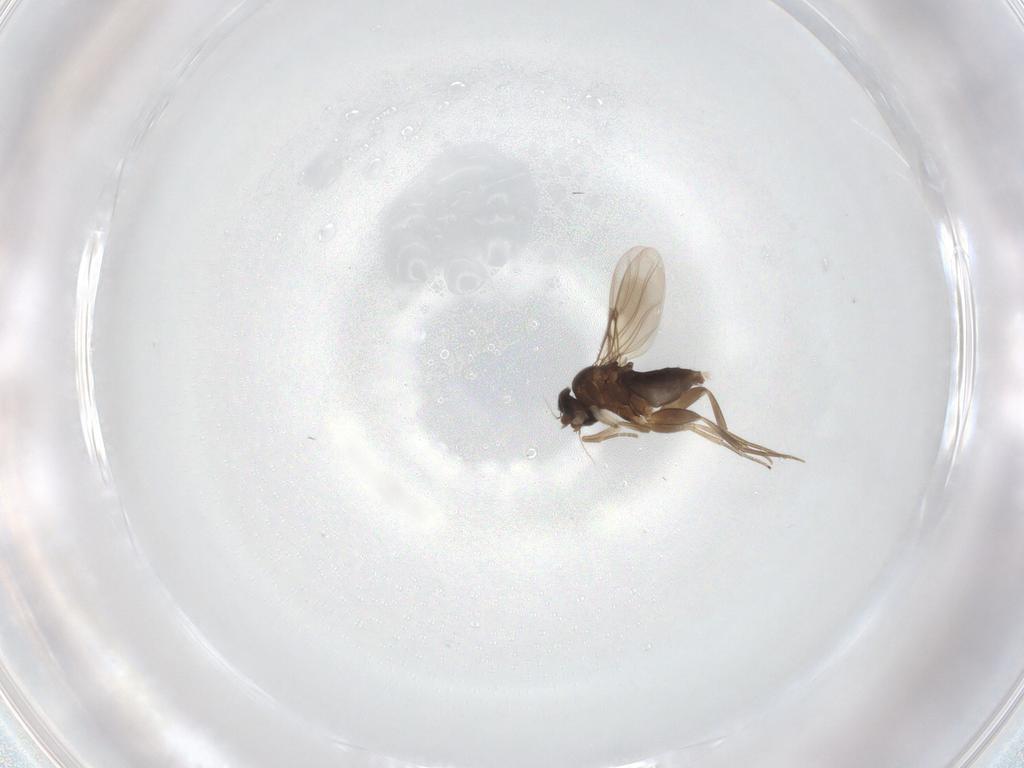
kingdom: Animalia
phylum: Arthropoda
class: Insecta
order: Diptera
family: Phoridae
